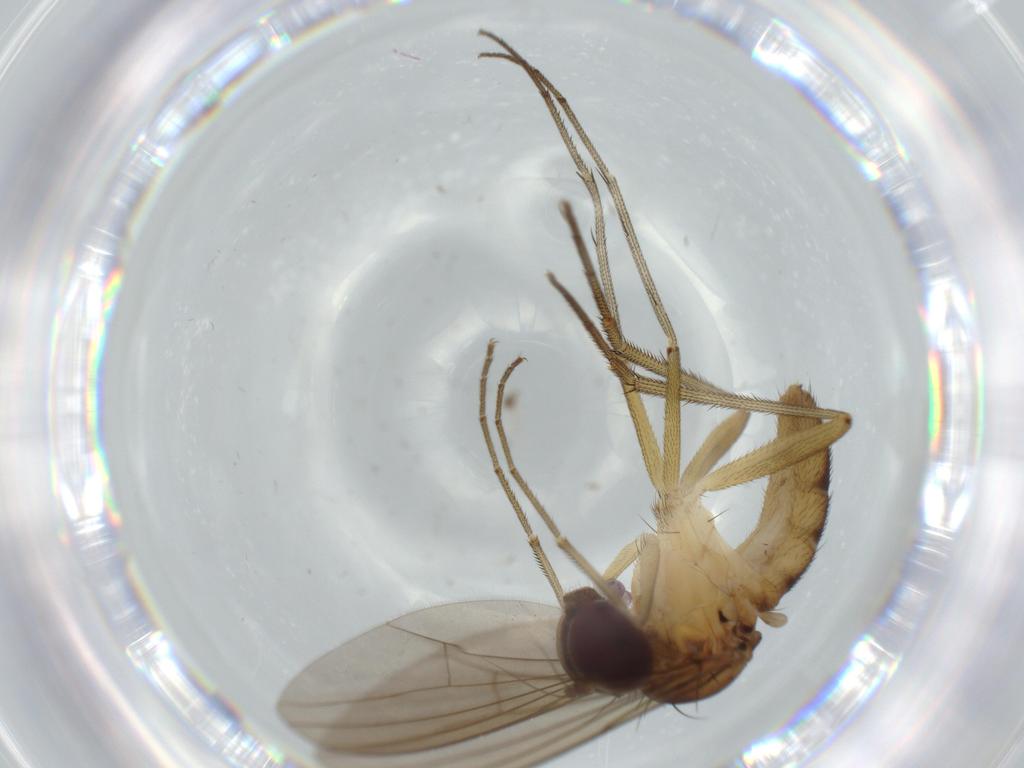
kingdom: Animalia
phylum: Arthropoda
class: Insecta
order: Diptera
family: Dolichopodidae
